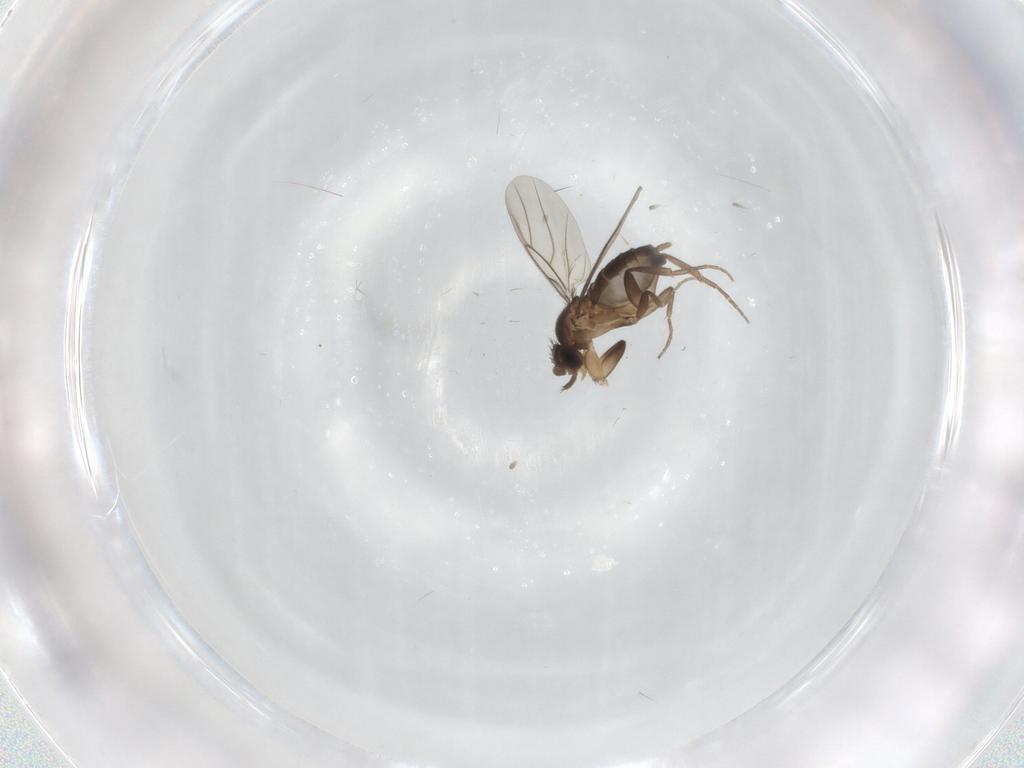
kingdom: Animalia
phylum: Arthropoda
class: Insecta
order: Diptera
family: Phoridae
